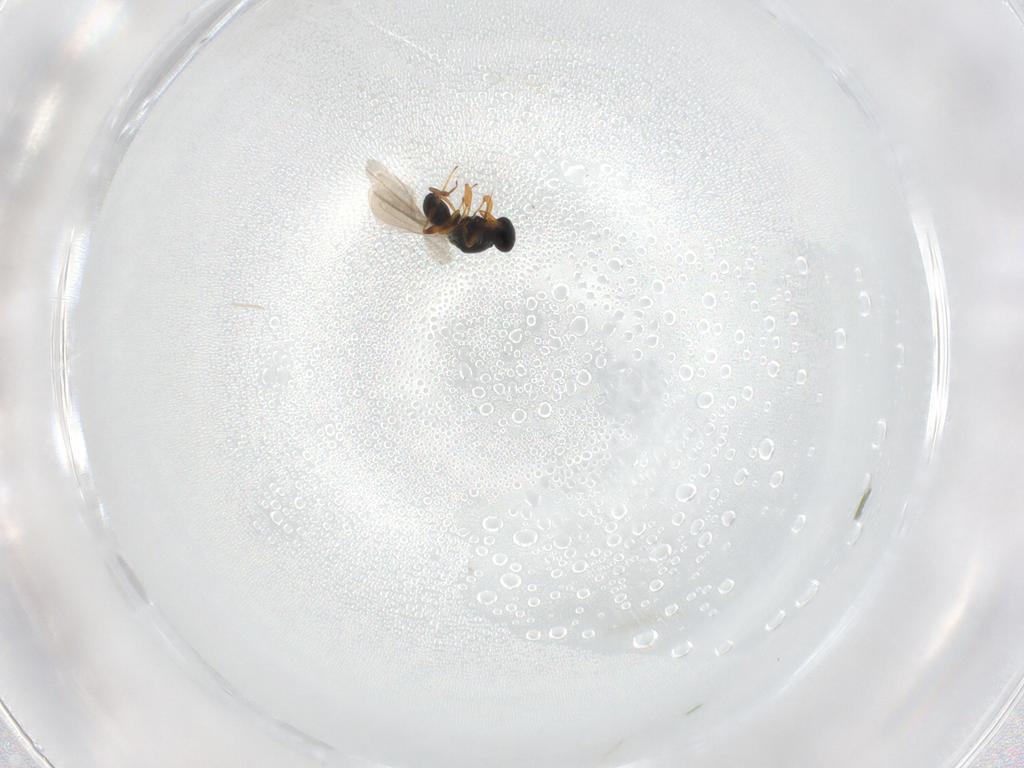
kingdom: Animalia
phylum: Arthropoda
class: Insecta
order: Hymenoptera
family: Platygastridae
